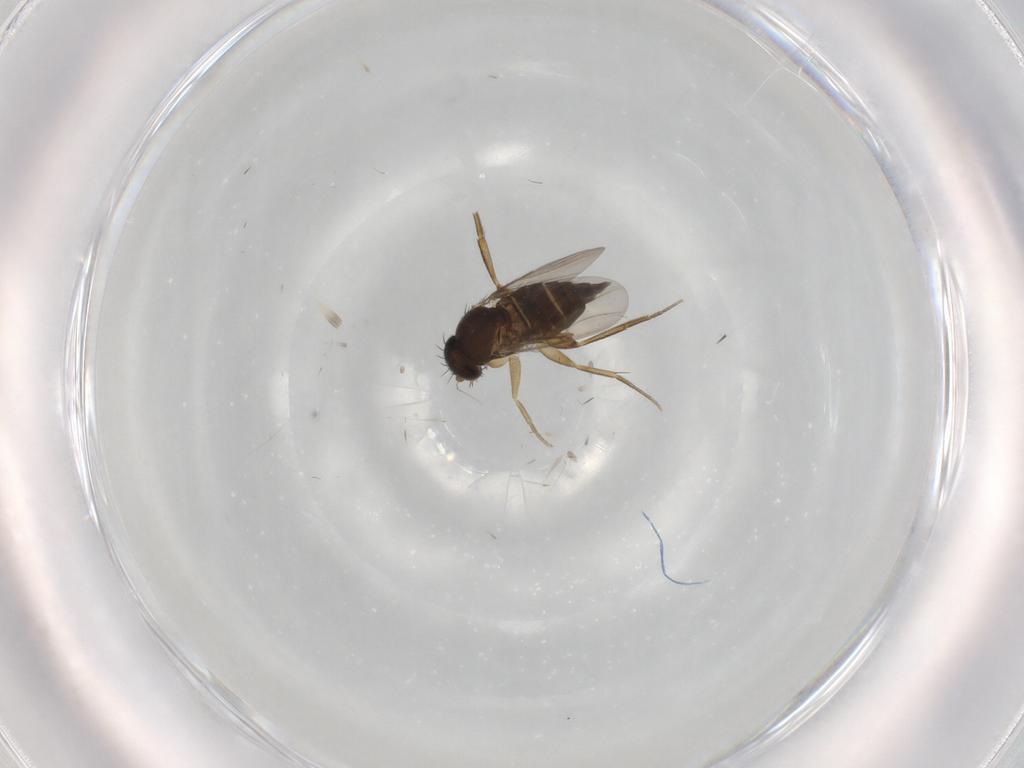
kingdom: Animalia
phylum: Arthropoda
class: Insecta
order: Diptera
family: Phoridae
